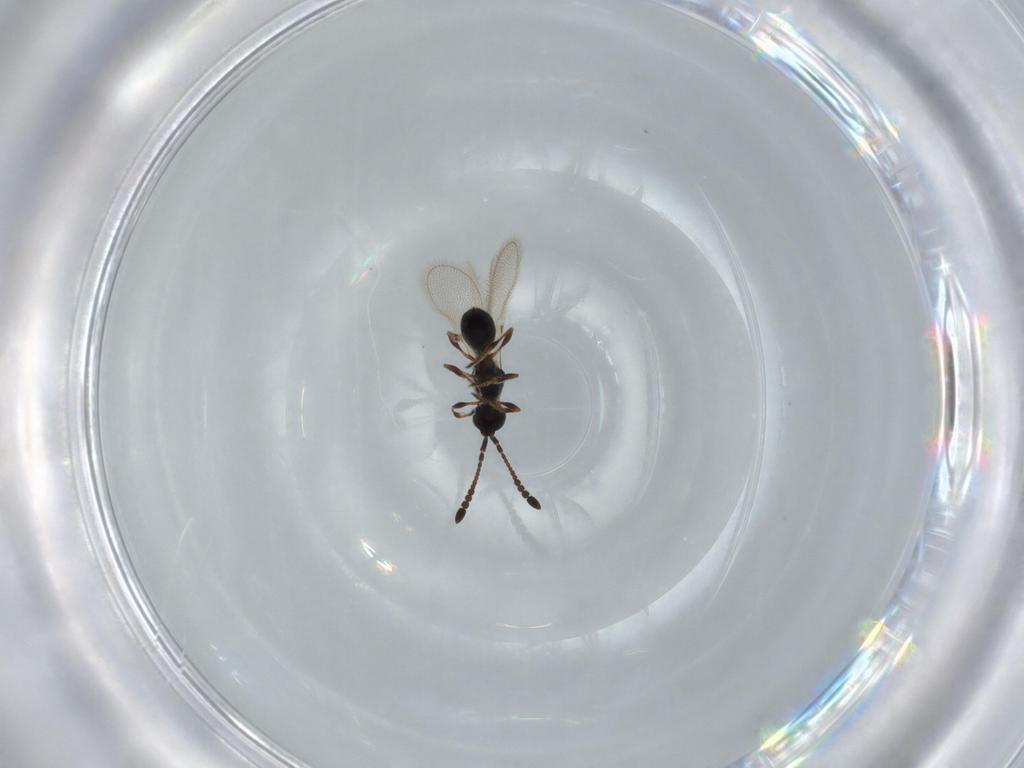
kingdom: Animalia
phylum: Arthropoda
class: Insecta
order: Hymenoptera
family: Diapriidae
